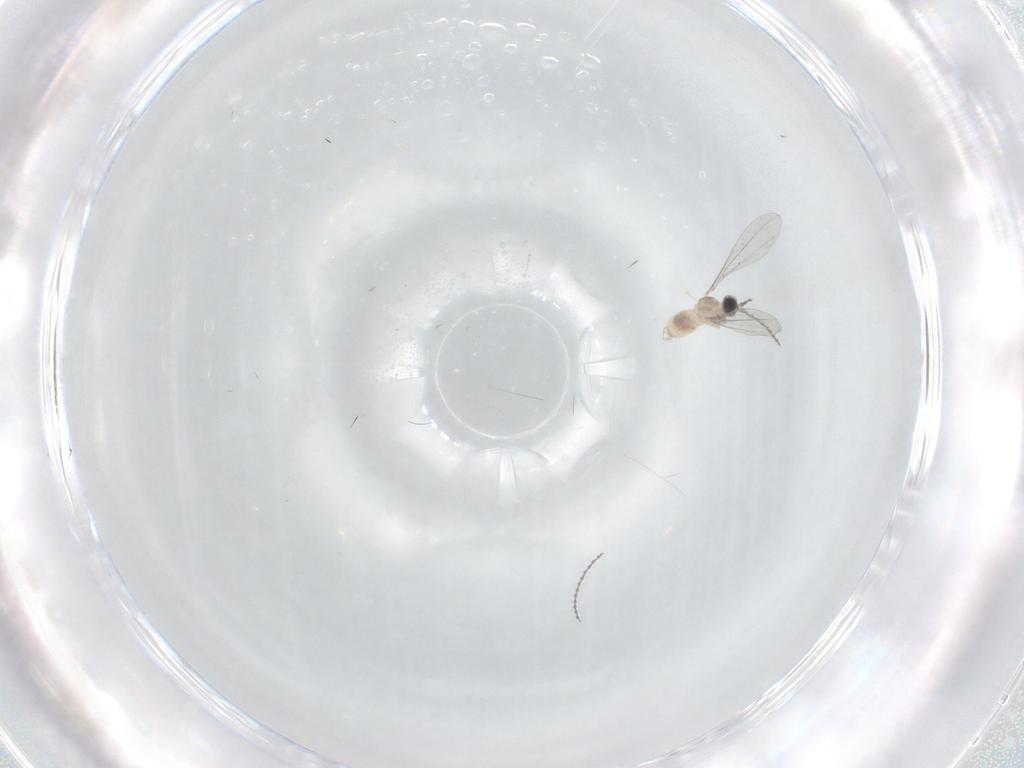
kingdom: Animalia
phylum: Arthropoda
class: Insecta
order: Diptera
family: Cecidomyiidae
